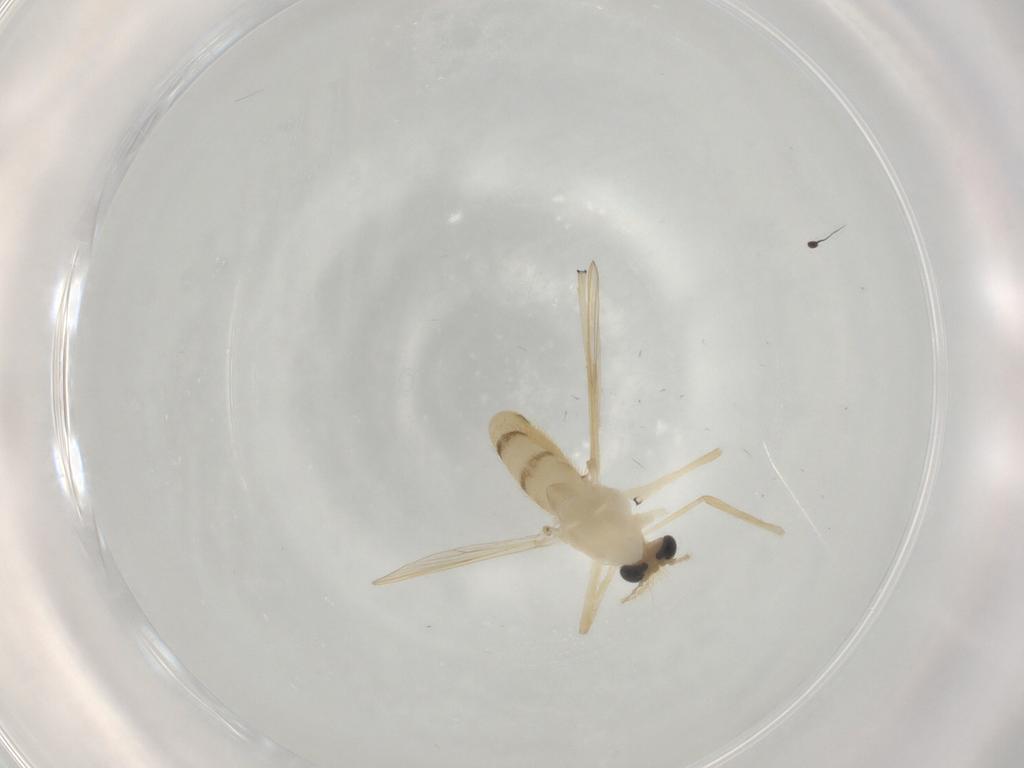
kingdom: Animalia
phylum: Arthropoda
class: Insecta
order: Diptera
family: Chironomidae
